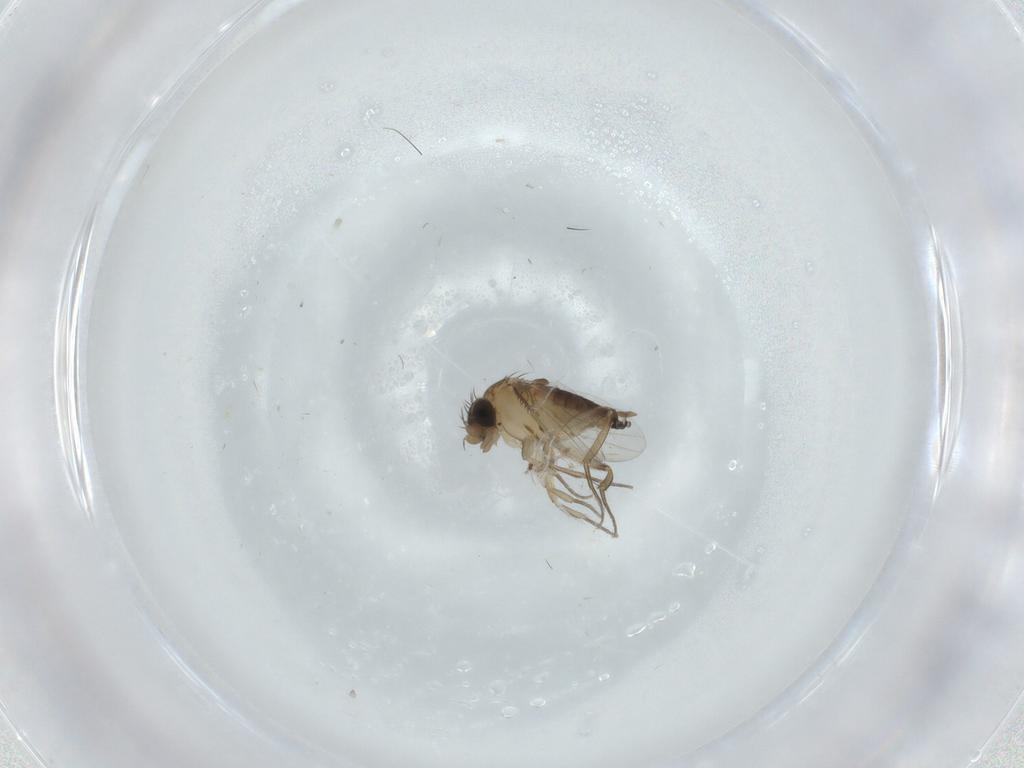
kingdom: Animalia
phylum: Arthropoda
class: Insecta
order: Diptera
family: Phoridae
